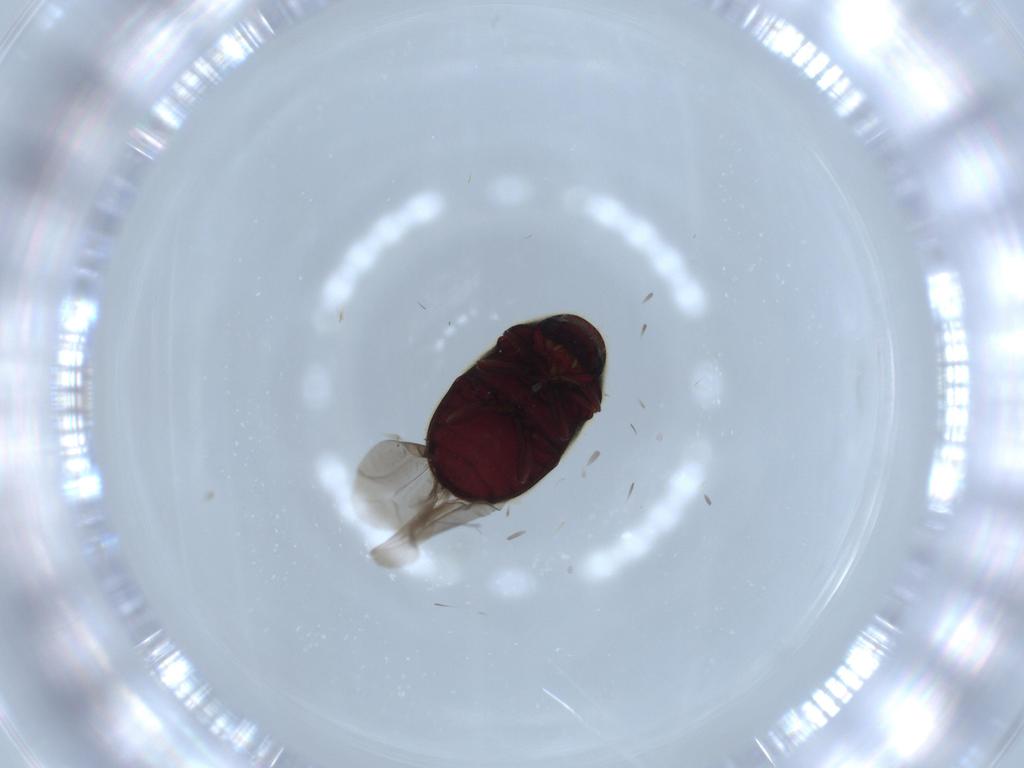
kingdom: Animalia
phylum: Arthropoda
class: Insecta
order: Coleoptera
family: Ptinidae
